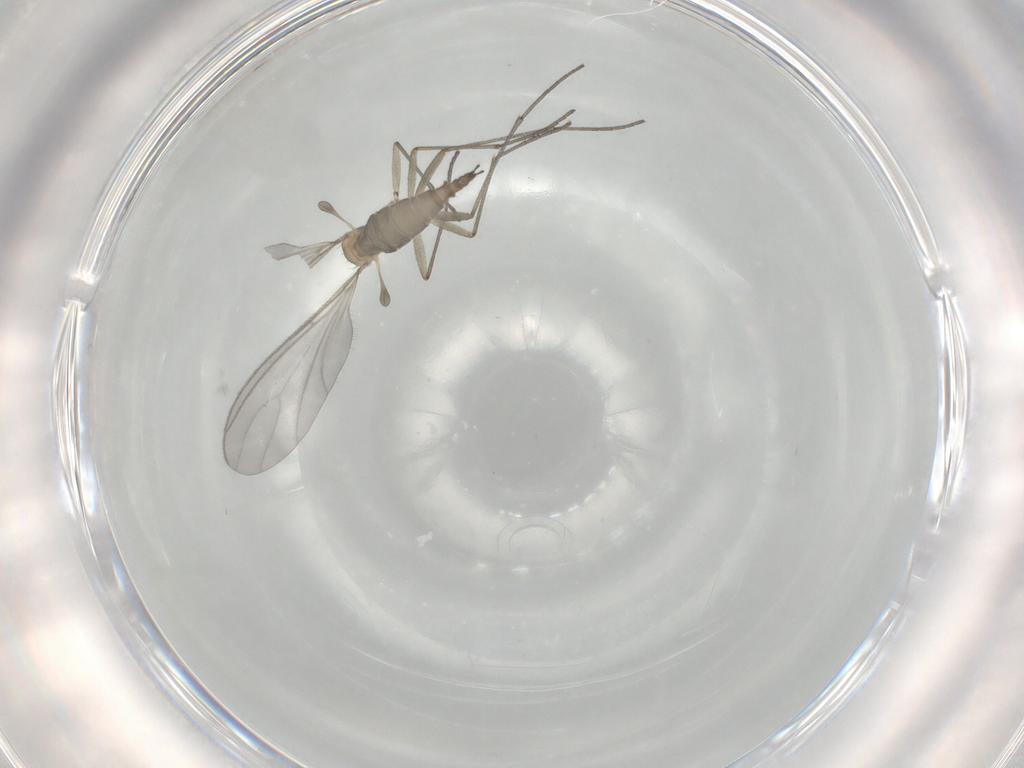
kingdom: Animalia
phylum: Arthropoda
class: Insecta
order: Diptera
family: Sciaridae
